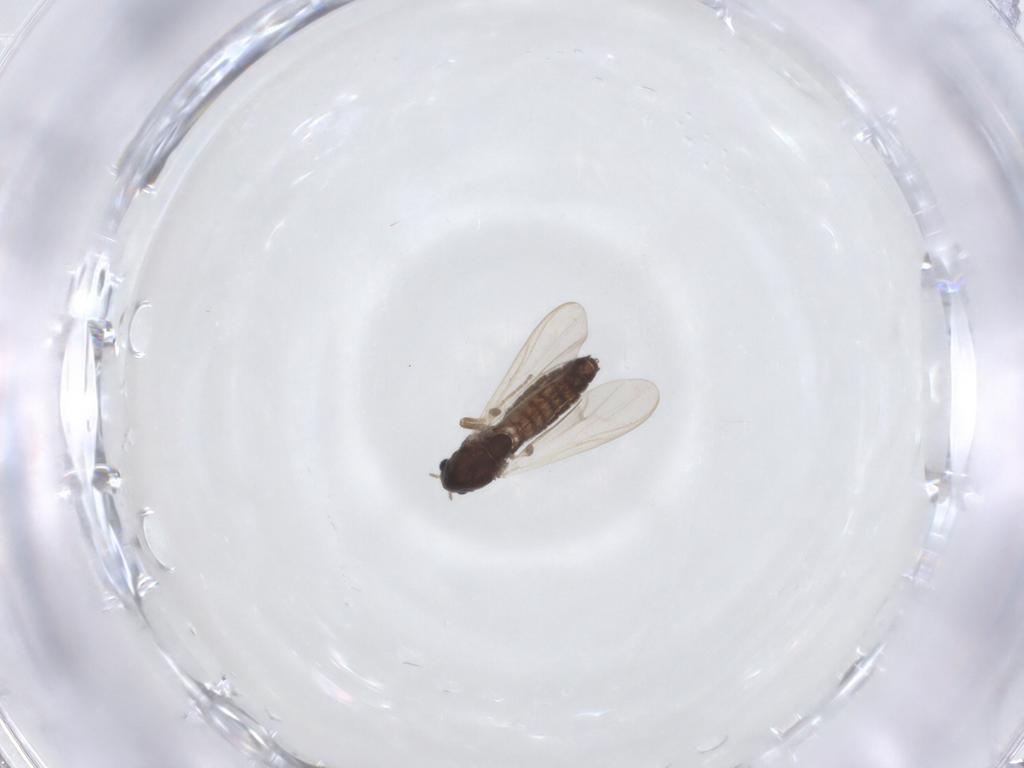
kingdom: Animalia
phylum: Arthropoda
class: Insecta
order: Diptera
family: Chironomidae
